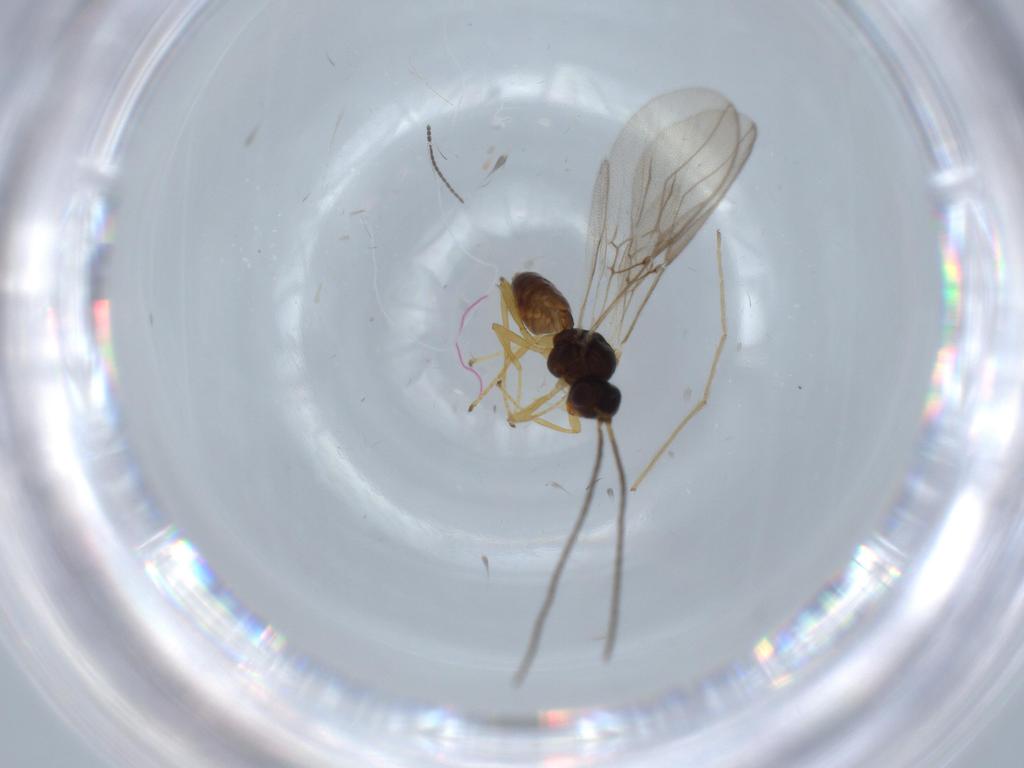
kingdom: Animalia
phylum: Arthropoda
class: Insecta
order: Hymenoptera
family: Braconidae
